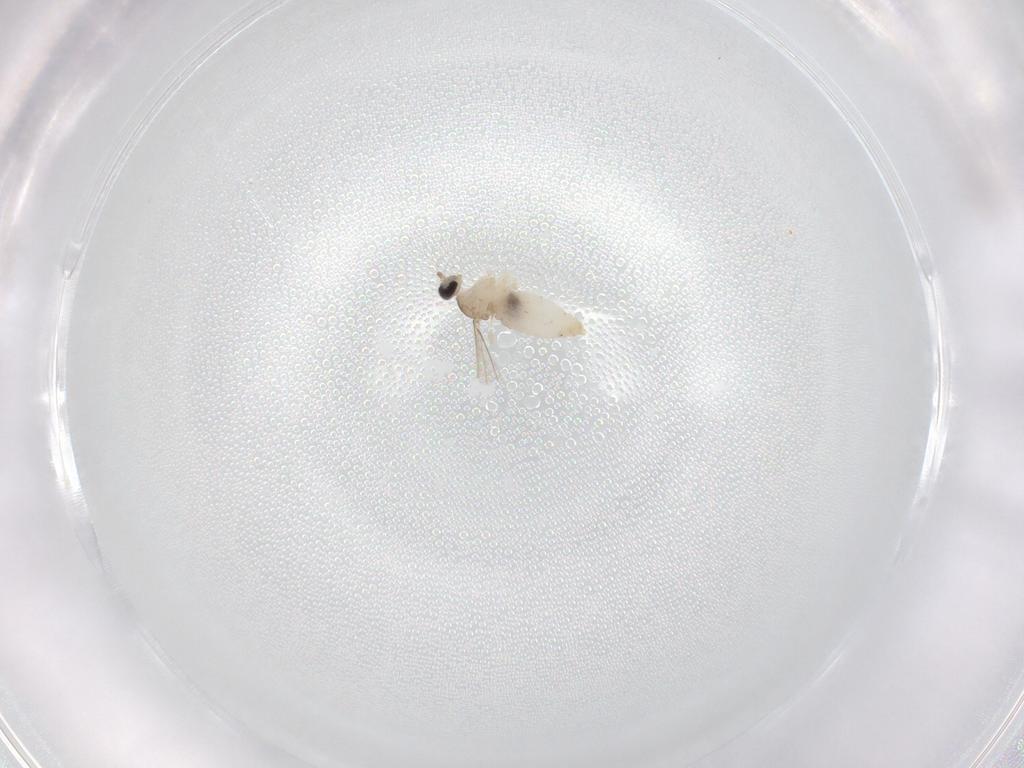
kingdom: Animalia
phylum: Arthropoda
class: Insecta
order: Diptera
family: Cecidomyiidae
